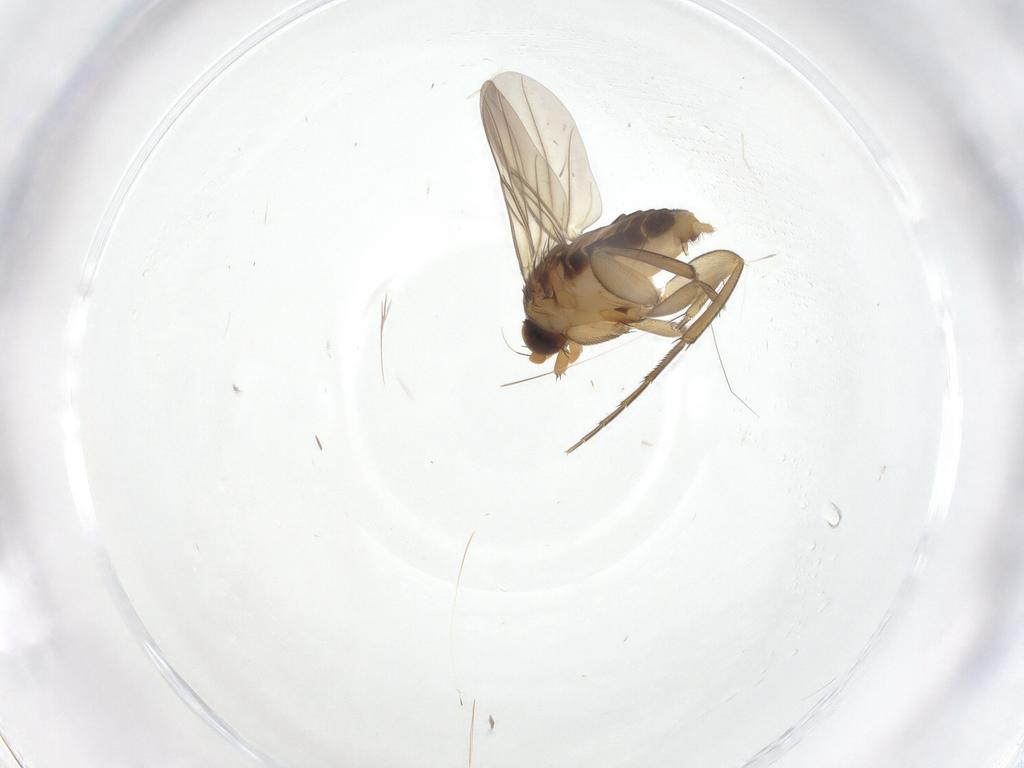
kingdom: Animalia
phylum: Arthropoda
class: Insecta
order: Diptera
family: Phoridae
